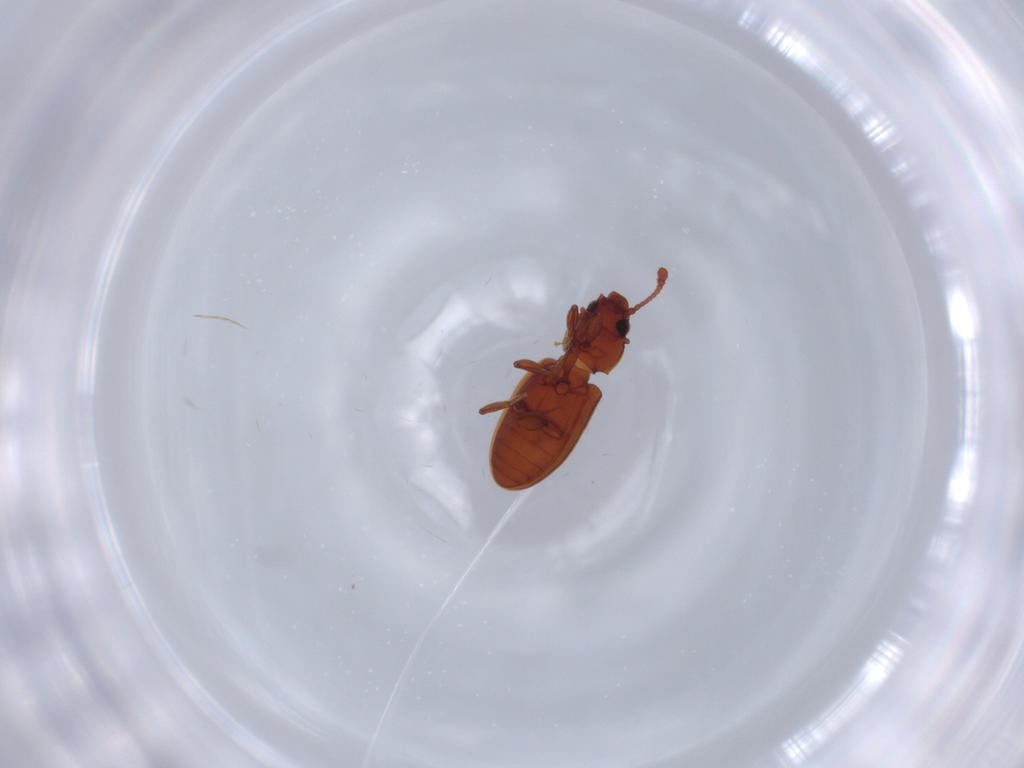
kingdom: Animalia
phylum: Arthropoda
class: Insecta
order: Coleoptera
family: Silvanidae
